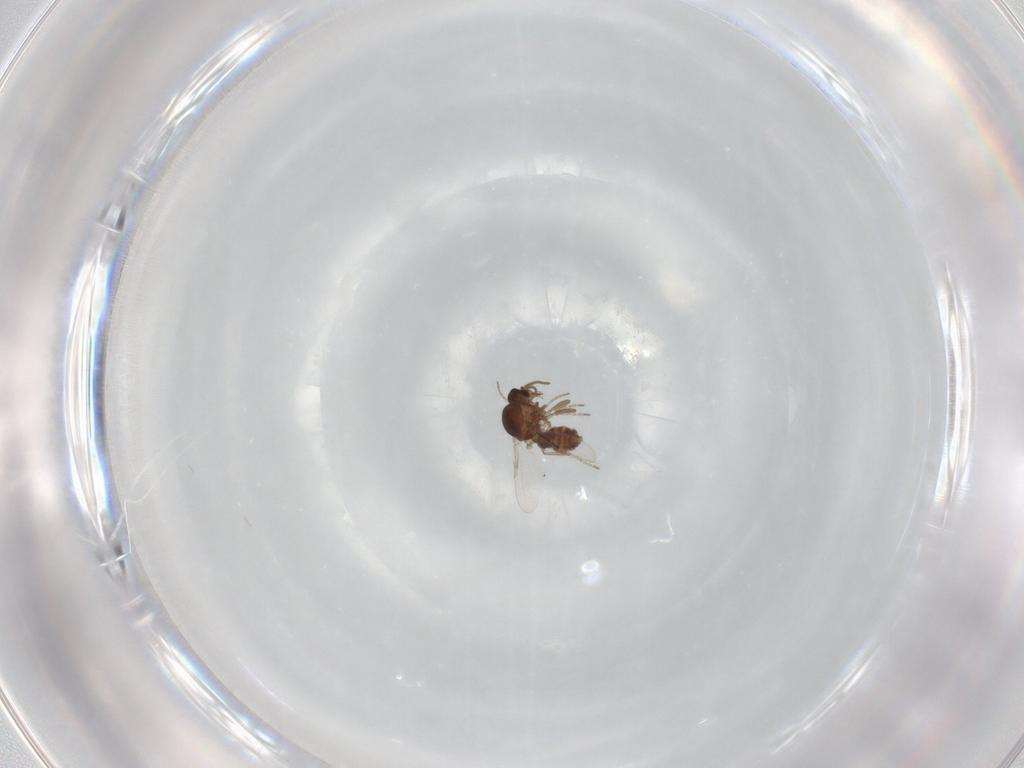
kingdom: Animalia
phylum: Arthropoda
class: Insecta
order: Diptera
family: Ceratopogonidae
